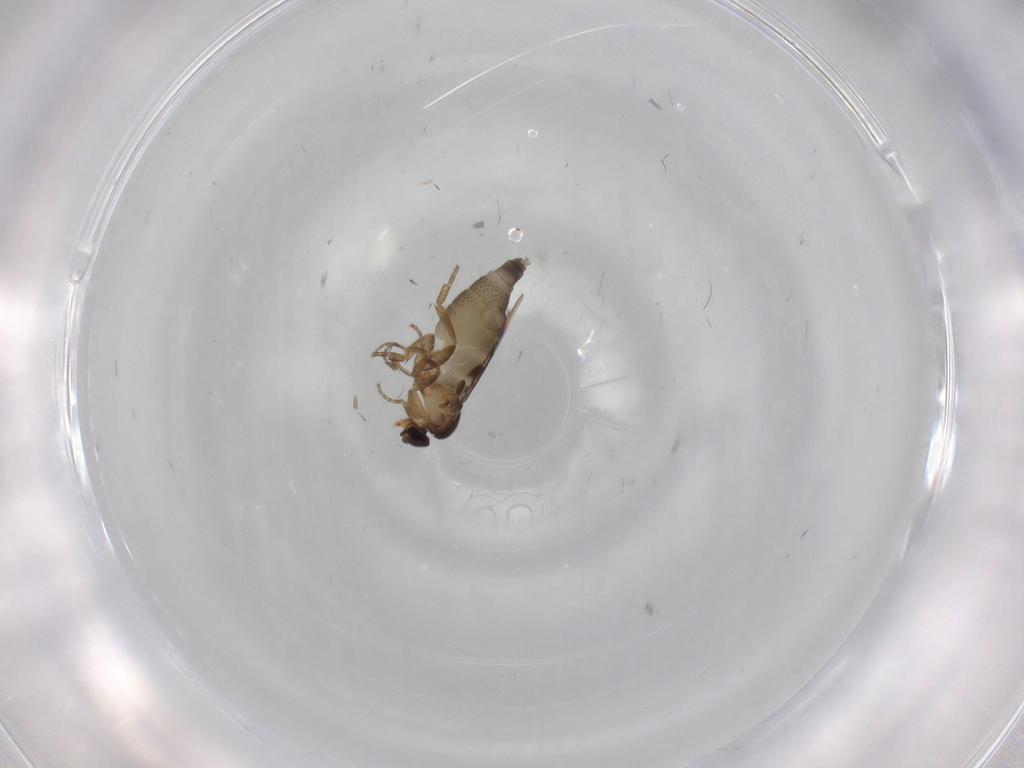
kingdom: Animalia
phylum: Arthropoda
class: Insecta
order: Diptera
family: Phoridae
